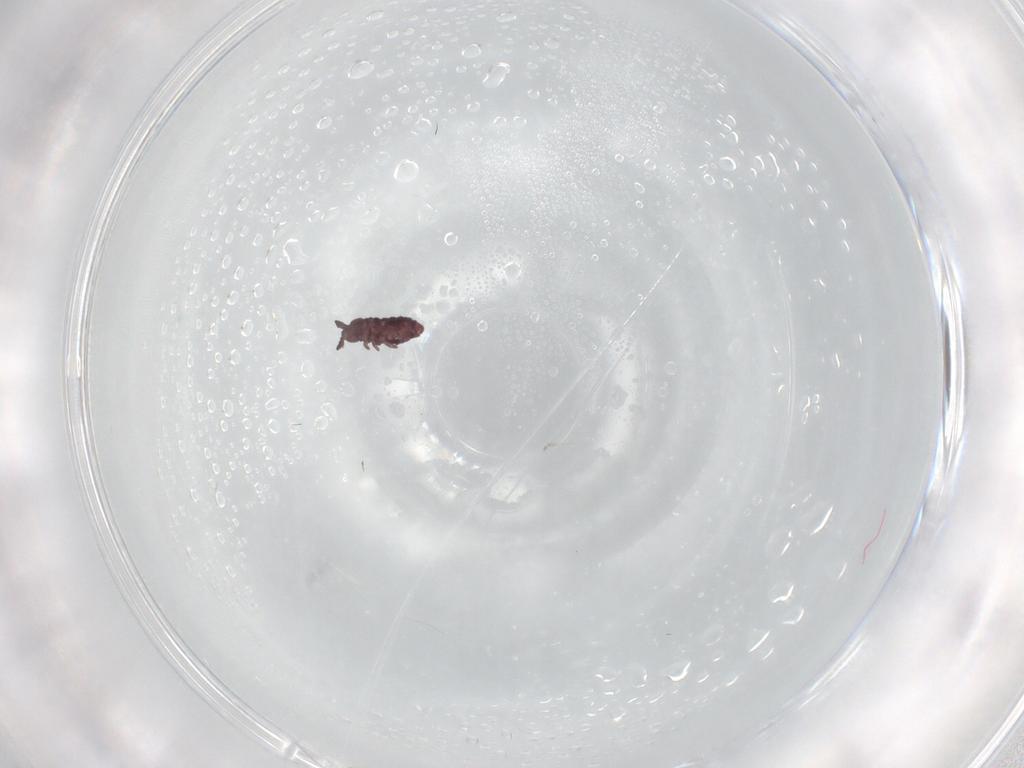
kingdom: Animalia
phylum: Arthropoda
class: Collembola
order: Poduromorpha
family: Hypogastruridae
